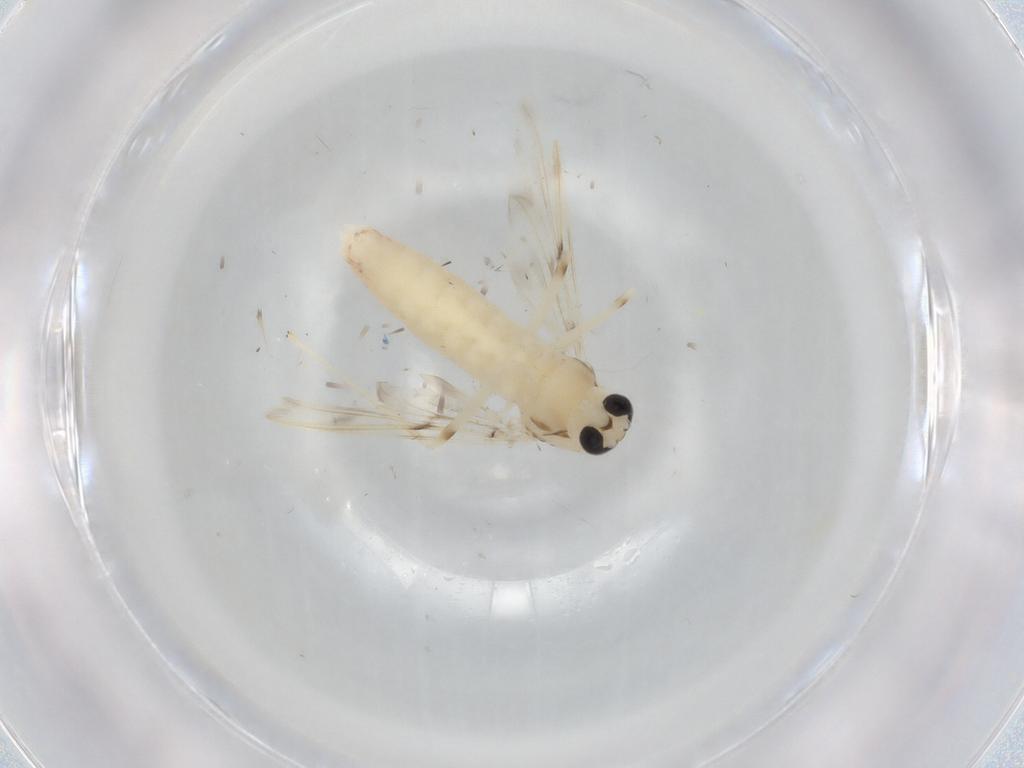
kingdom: Animalia
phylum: Arthropoda
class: Insecta
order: Diptera
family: Chironomidae
